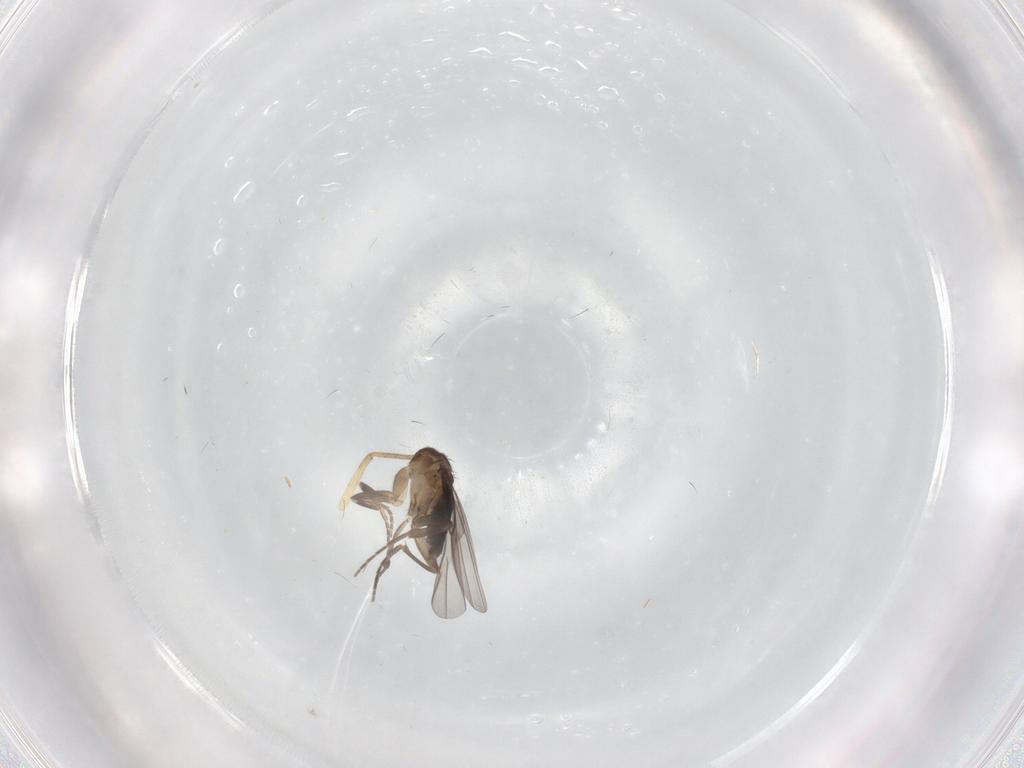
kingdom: Animalia
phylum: Arthropoda
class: Insecta
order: Diptera
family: Phoridae
